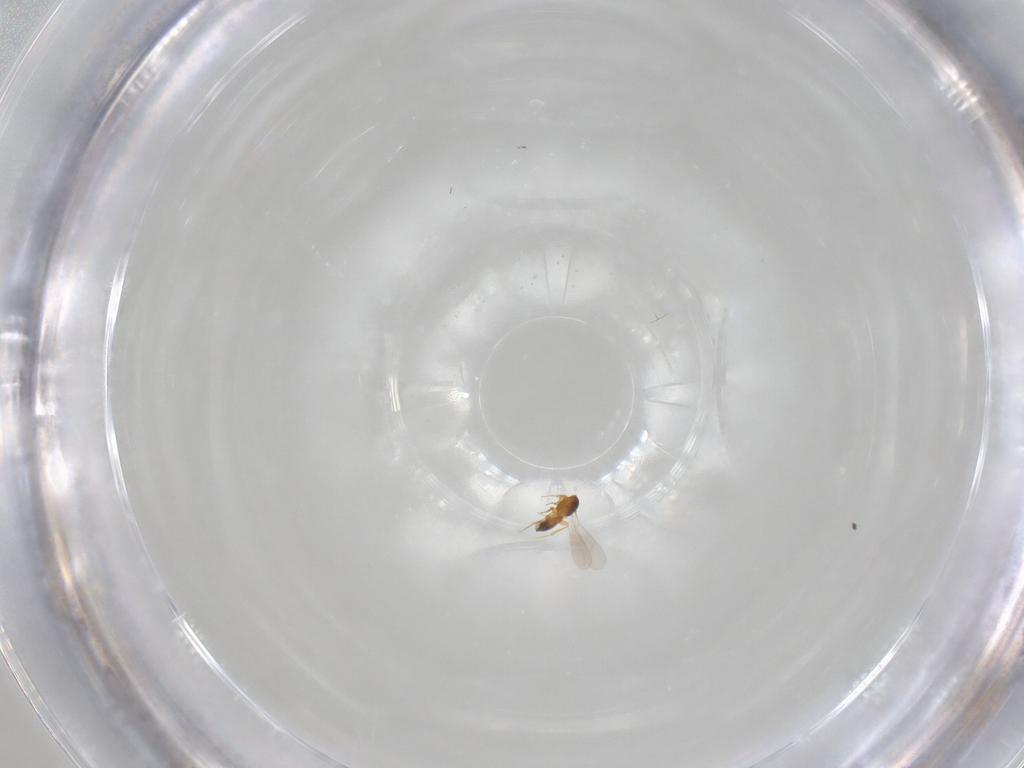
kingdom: Animalia
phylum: Arthropoda
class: Insecta
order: Hymenoptera
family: Platygastridae
